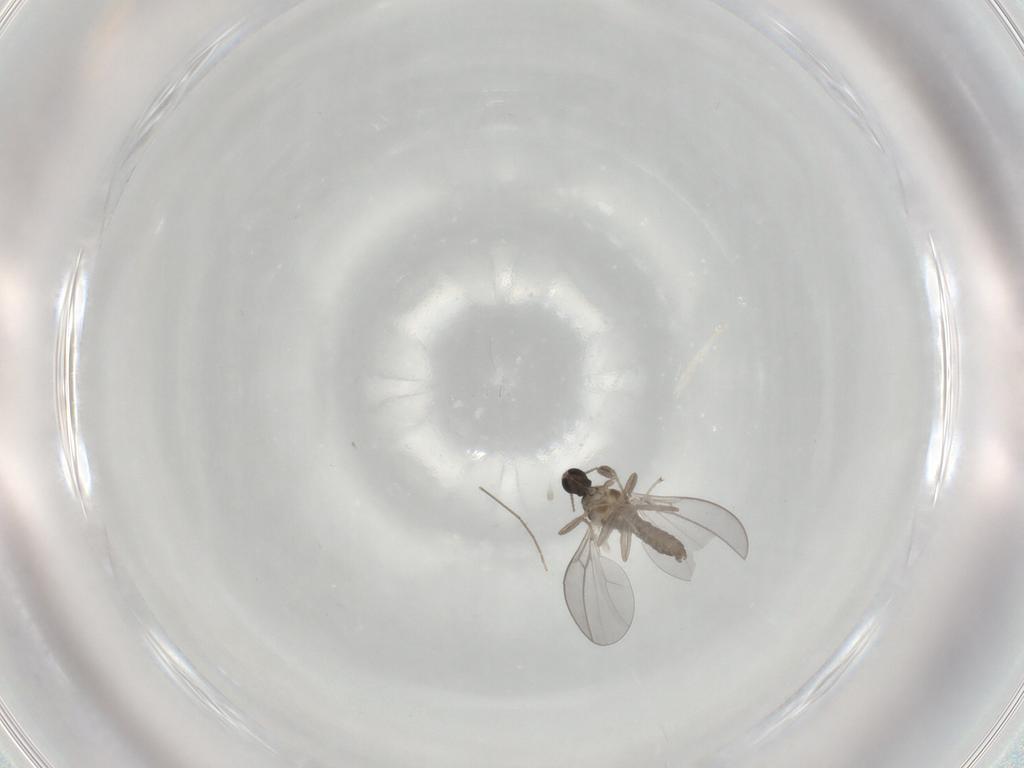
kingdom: Animalia
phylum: Arthropoda
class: Insecta
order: Diptera
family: Cecidomyiidae
